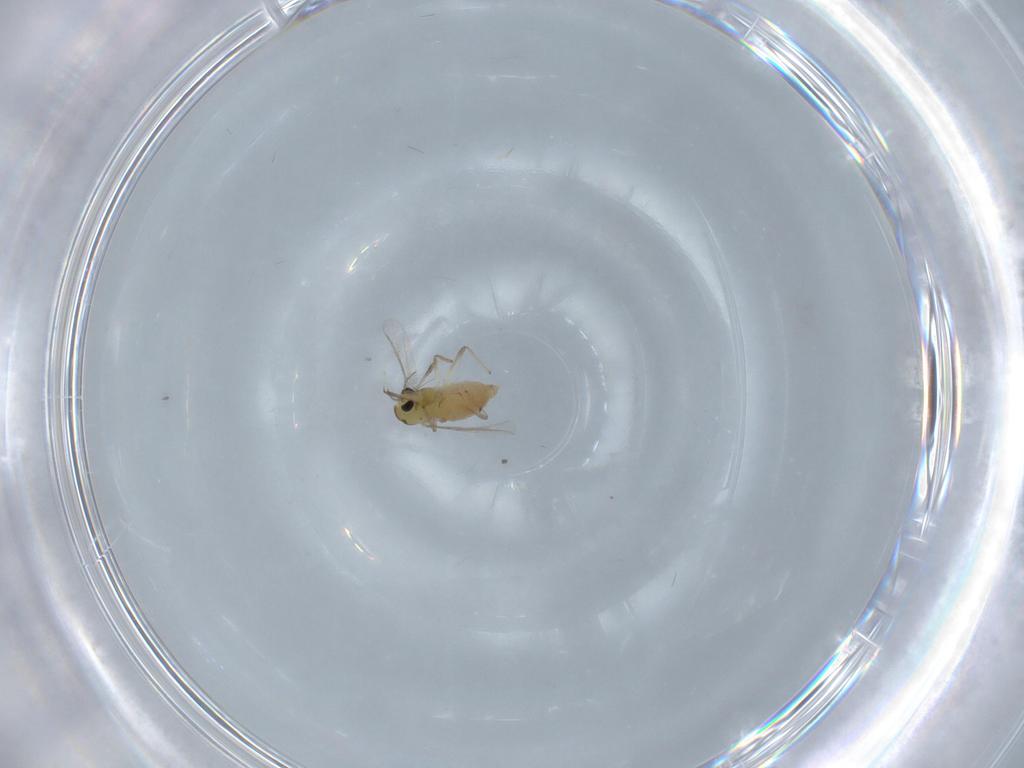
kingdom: Animalia
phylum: Arthropoda
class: Insecta
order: Diptera
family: Chironomidae
